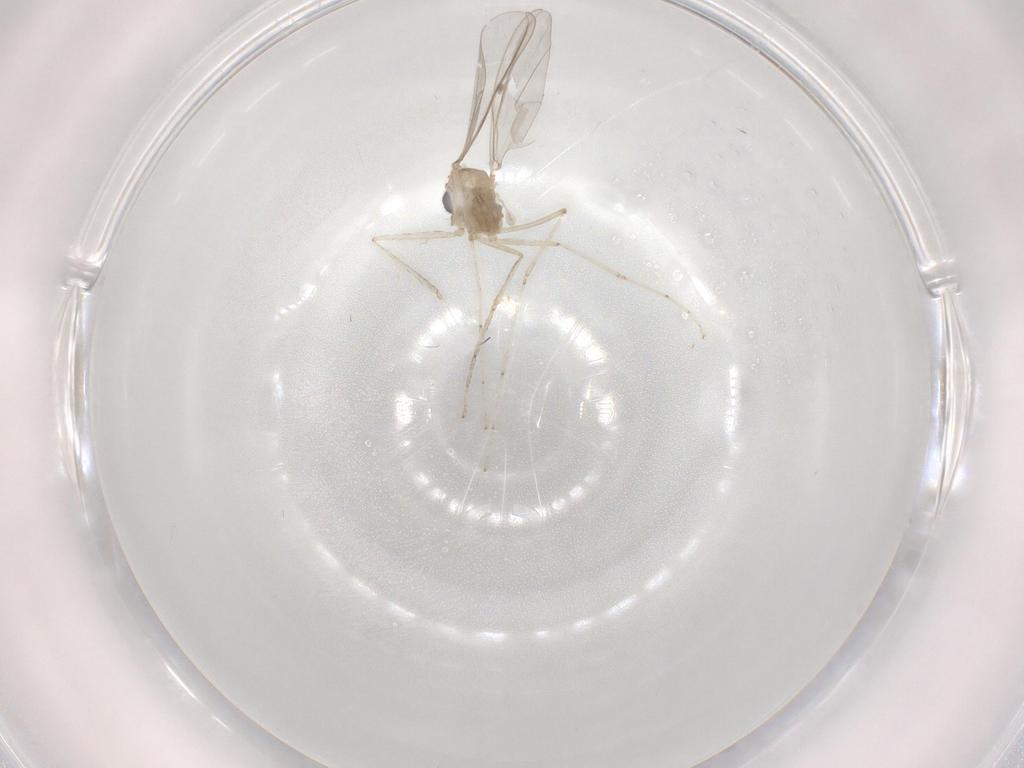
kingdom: Animalia
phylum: Arthropoda
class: Insecta
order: Diptera
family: Cecidomyiidae
